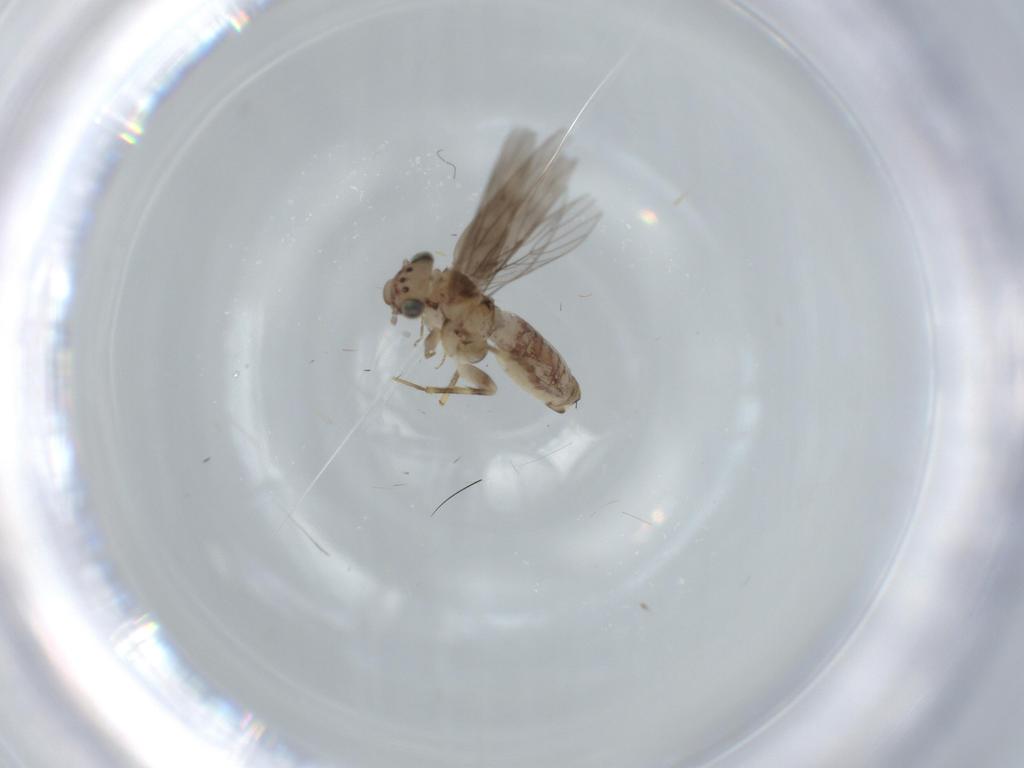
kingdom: Animalia
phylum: Arthropoda
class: Insecta
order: Psocodea
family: Lepidopsocidae
